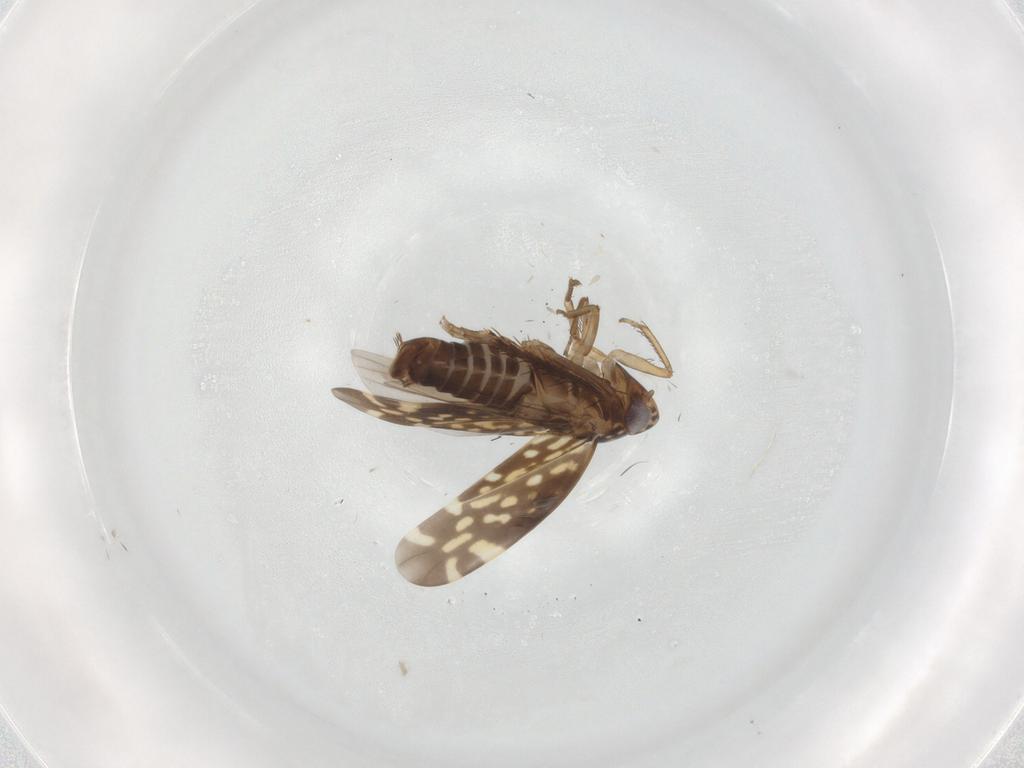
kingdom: Animalia
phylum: Arthropoda
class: Insecta
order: Hemiptera
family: Cicadellidae
